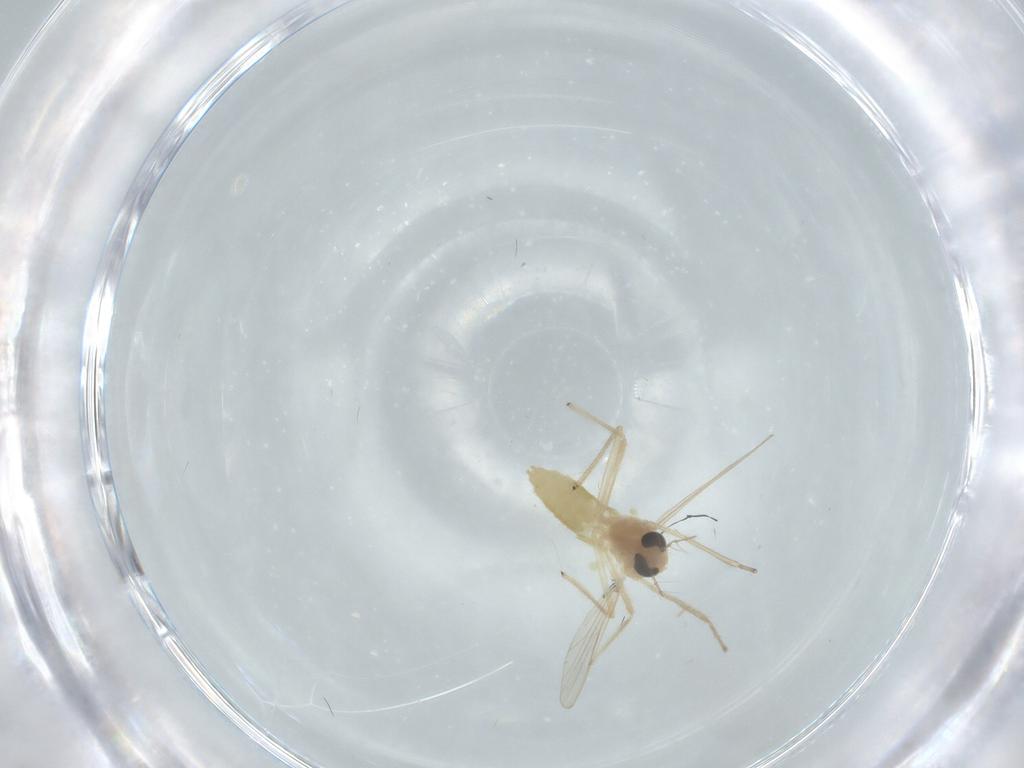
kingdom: Animalia
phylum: Arthropoda
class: Insecta
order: Diptera
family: Chironomidae
